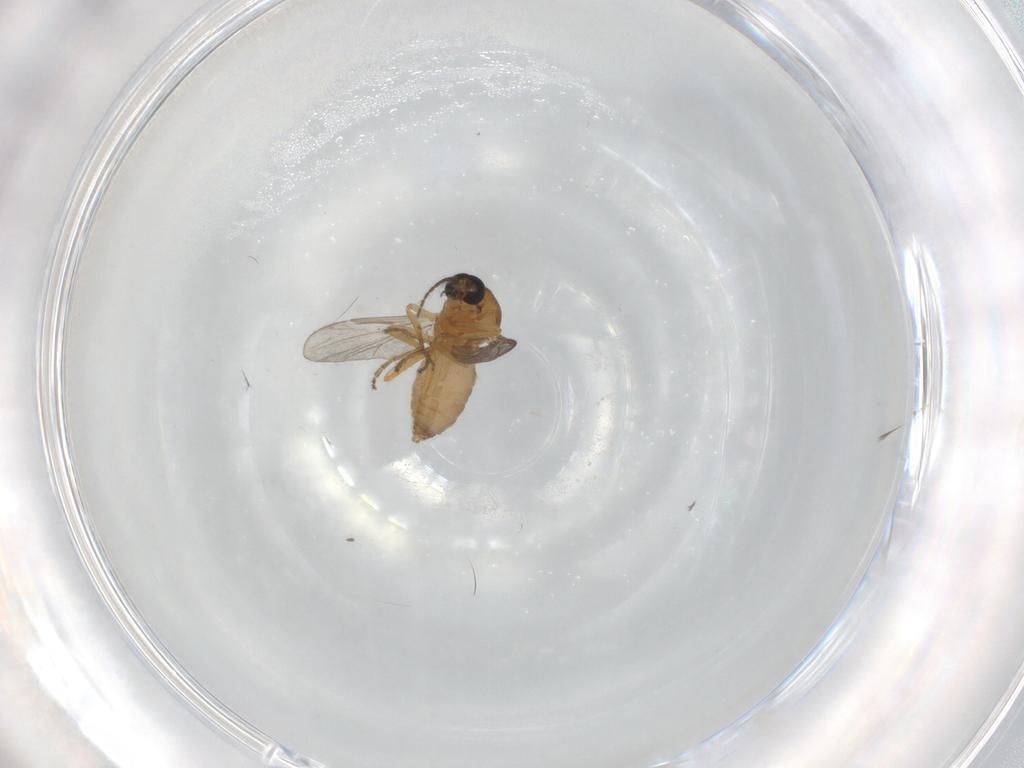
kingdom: Animalia
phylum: Arthropoda
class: Insecta
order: Diptera
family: Ceratopogonidae
